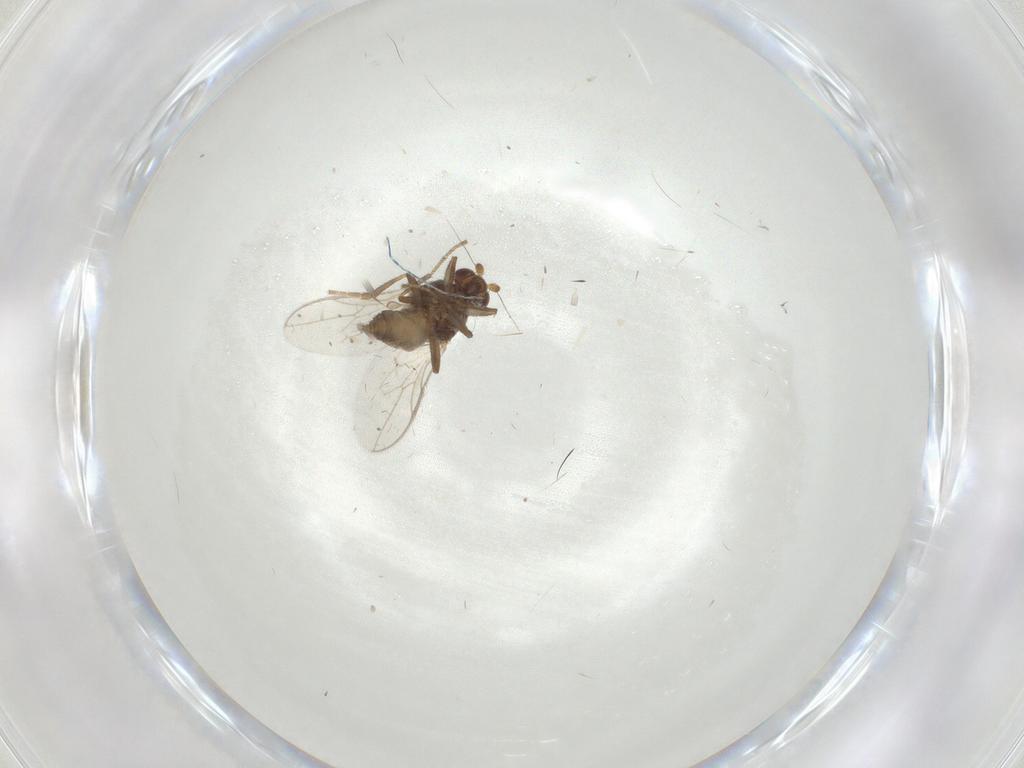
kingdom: Animalia
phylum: Arthropoda
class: Insecta
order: Diptera
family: Sphaeroceridae
